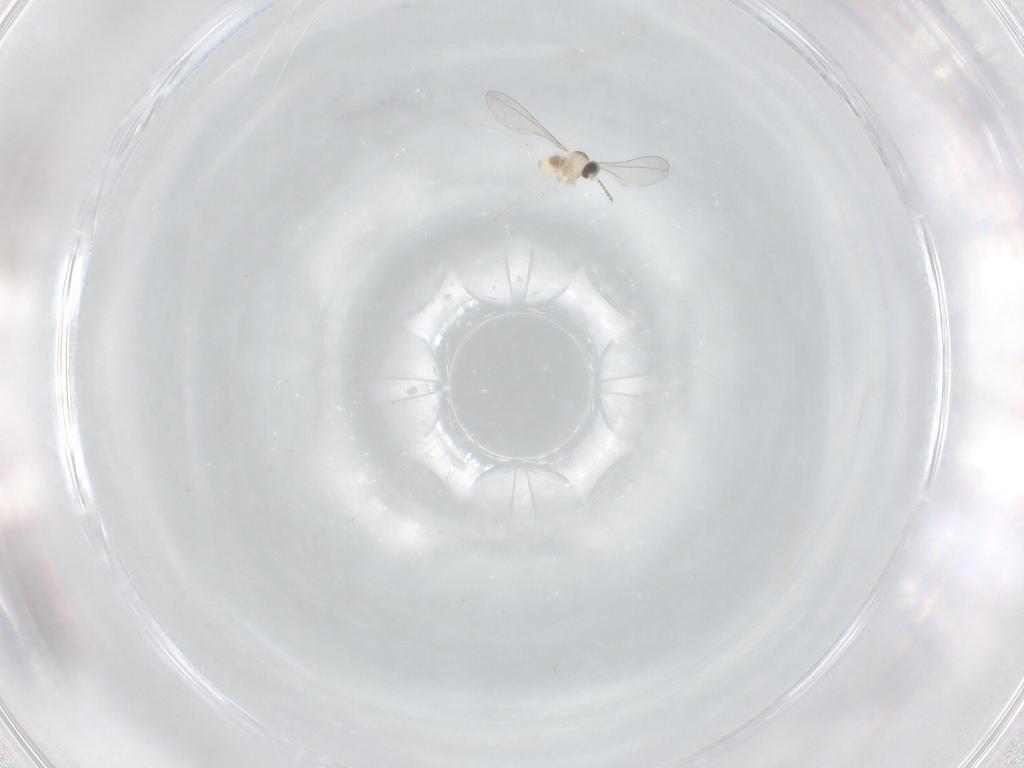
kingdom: Animalia
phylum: Arthropoda
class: Insecta
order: Diptera
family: Cecidomyiidae
